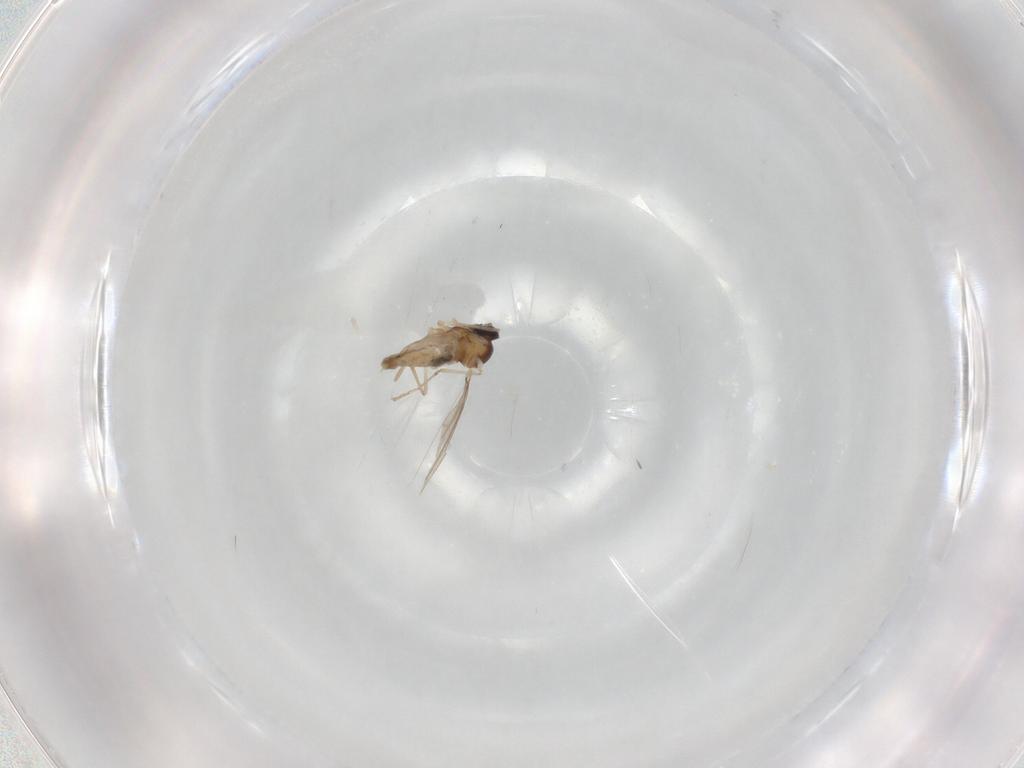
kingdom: Animalia
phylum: Arthropoda
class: Insecta
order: Diptera
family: Cecidomyiidae
